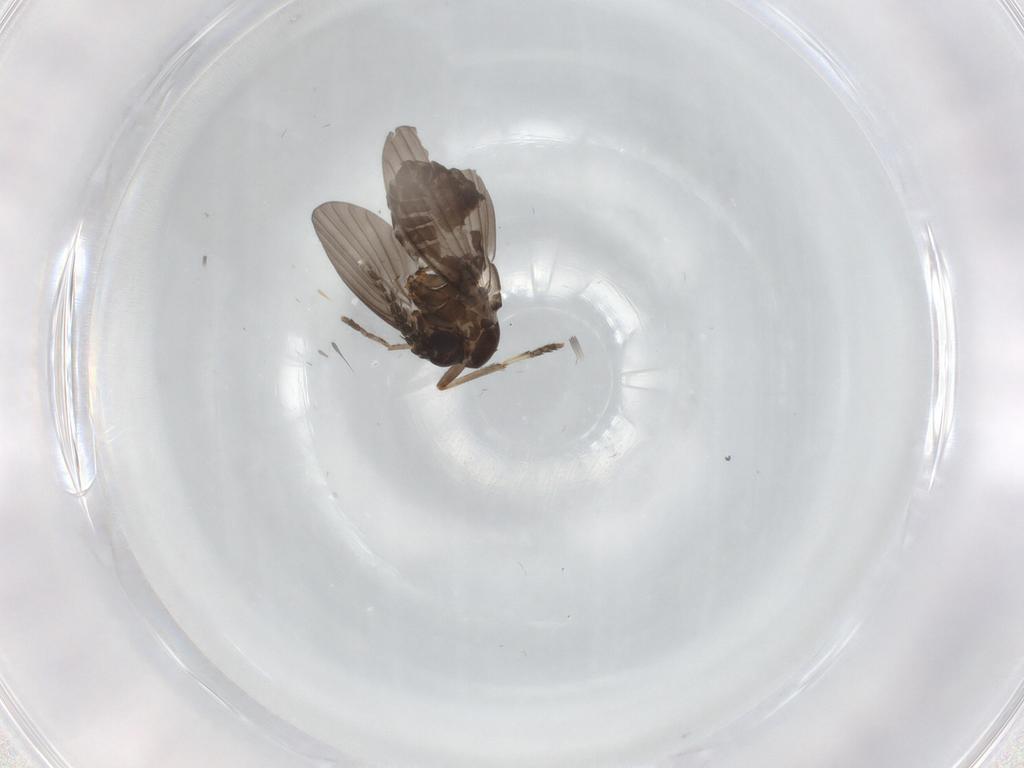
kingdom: Animalia
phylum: Arthropoda
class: Insecta
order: Diptera
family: Psychodidae
